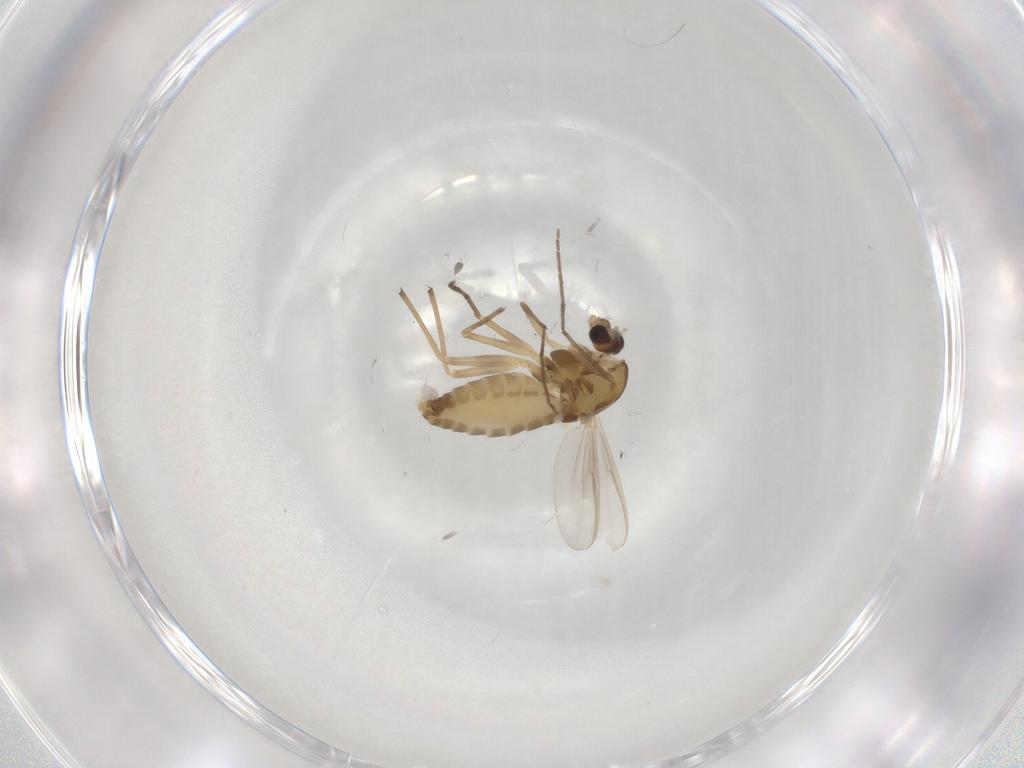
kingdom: Animalia
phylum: Arthropoda
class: Insecta
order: Diptera
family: Chironomidae
